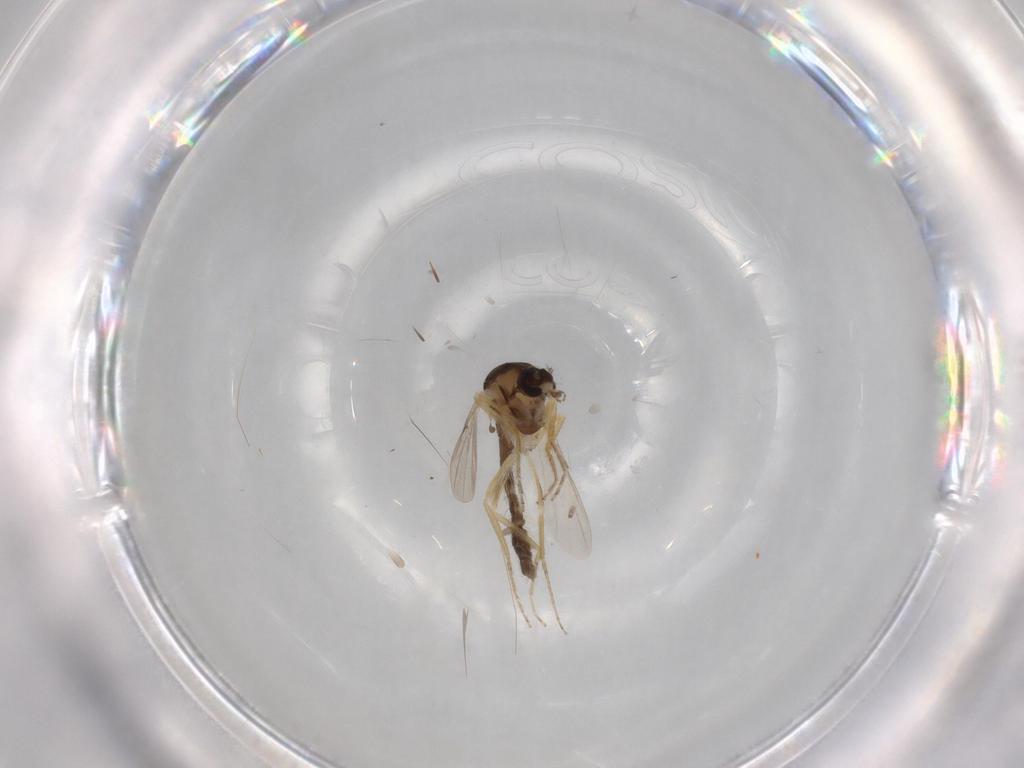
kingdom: Animalia
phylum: Arthropoda
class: Insecta
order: Diptera
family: Ceratopogonidae
